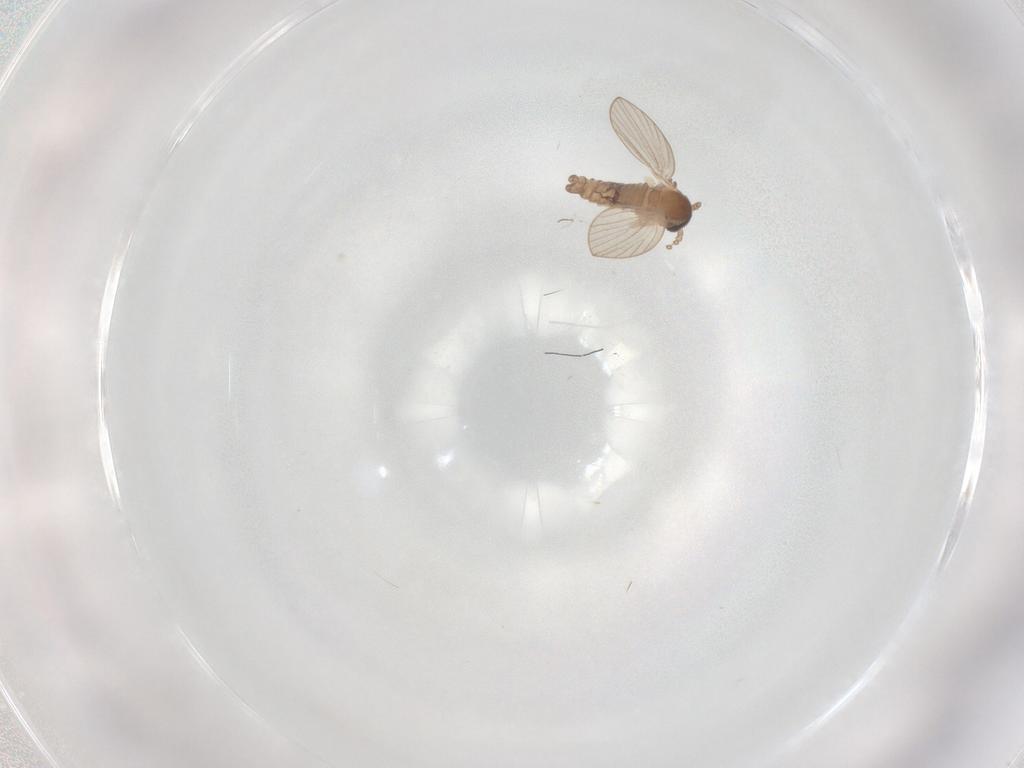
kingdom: Animalia
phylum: Arthropoda
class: Insecta
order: Diptera
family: Psychodidae
